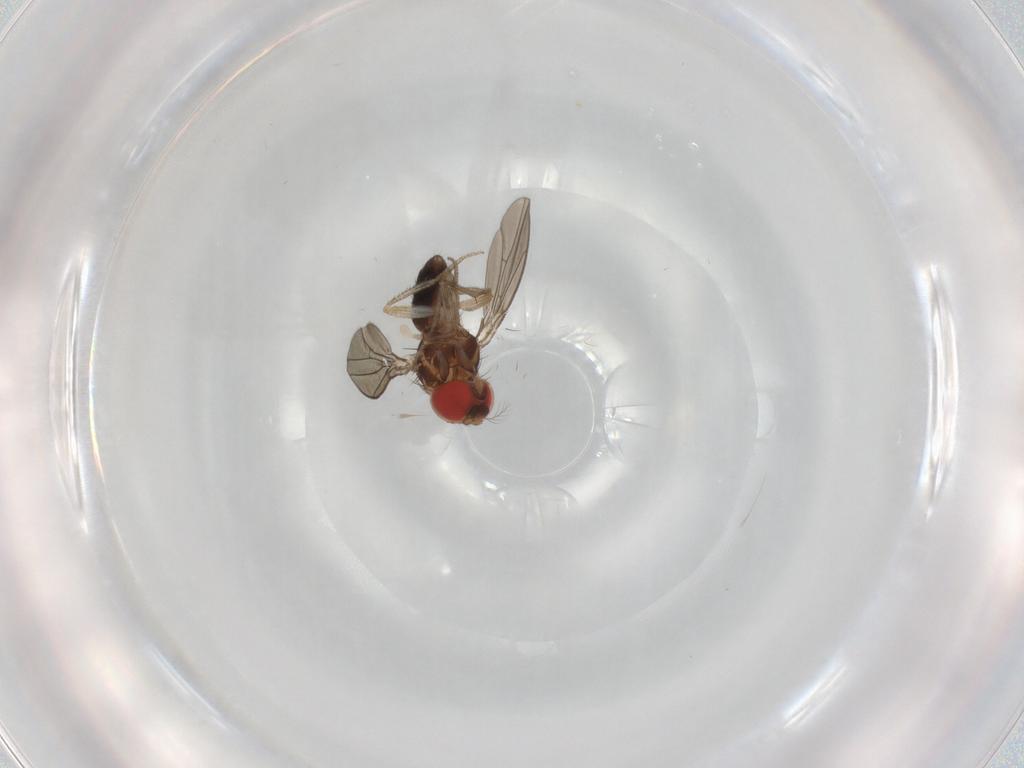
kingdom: Animalia
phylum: Arthropoda
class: Insecta
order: Diptera
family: Drosophilidae
